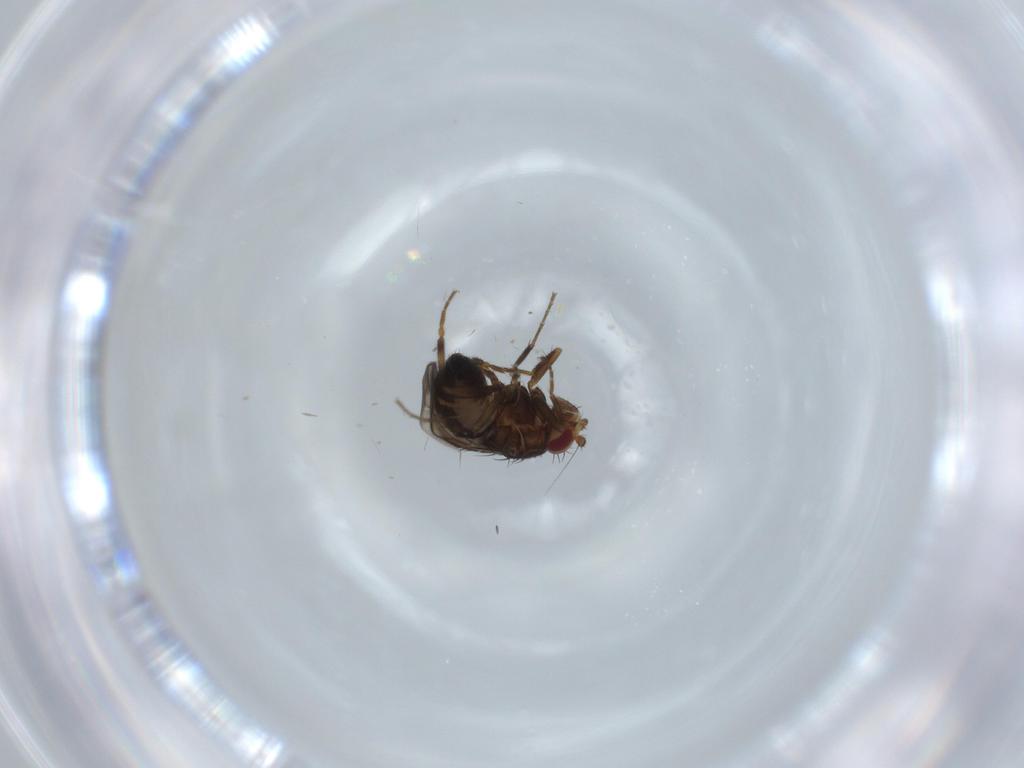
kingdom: Animalia
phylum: Arthropoda
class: Insecta
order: Diptera
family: Sphaeroceridae
